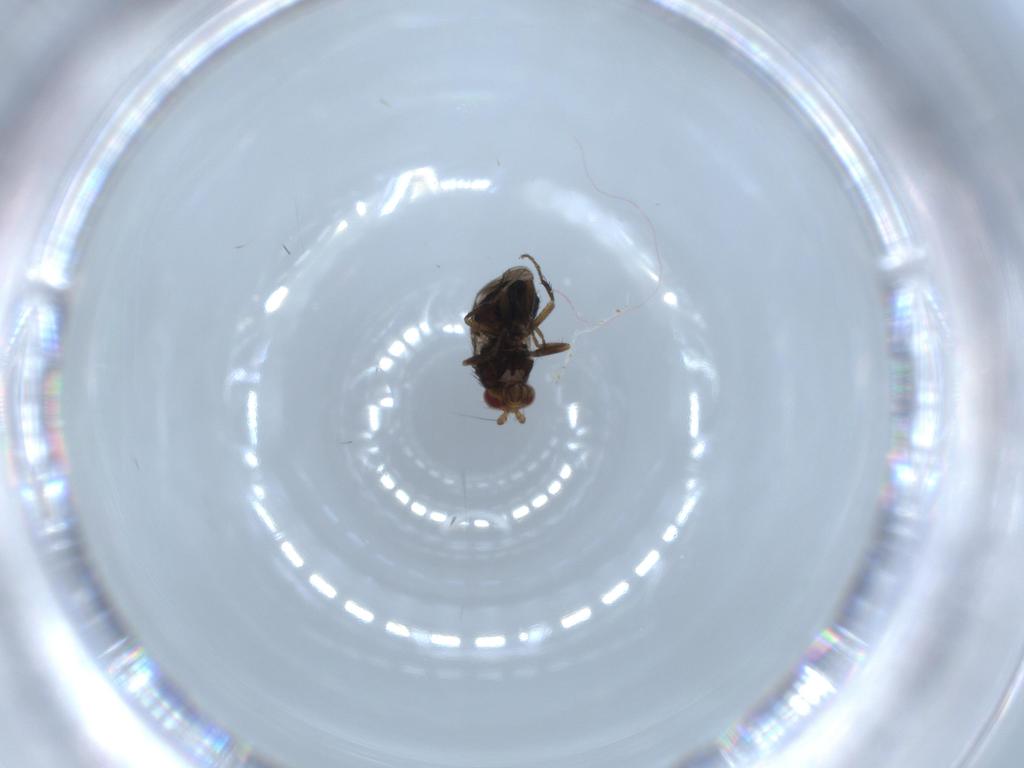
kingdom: Animalia
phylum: Arthropoda
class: Insecta
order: Diptera
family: Sphaeroceridae
